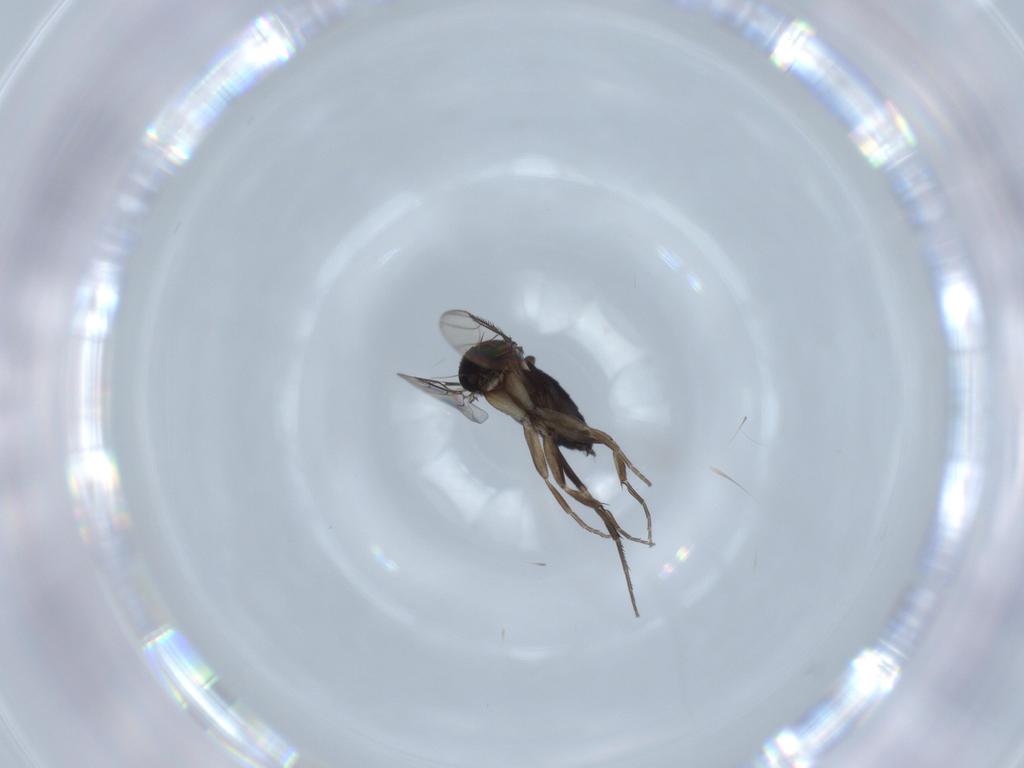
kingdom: Animalia
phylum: Arthropoda
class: Insecta
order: Diptera
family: Phoridae
